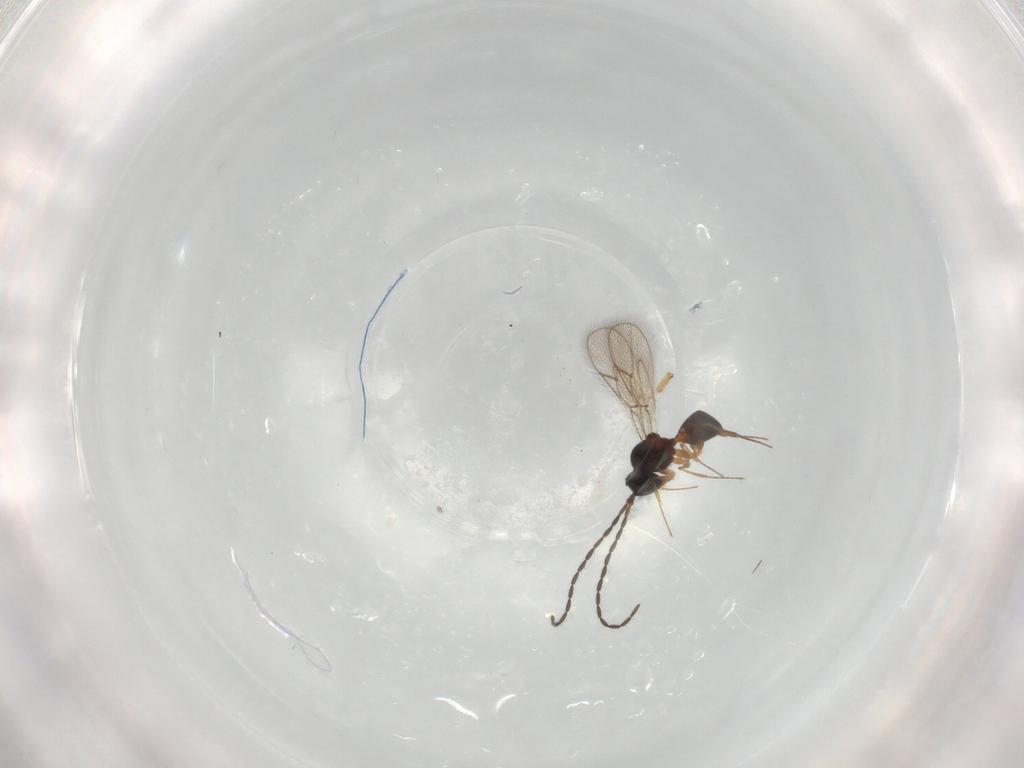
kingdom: Animalia
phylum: Arthropoda
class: Insecta
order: Hymenoptera
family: Figitidae
